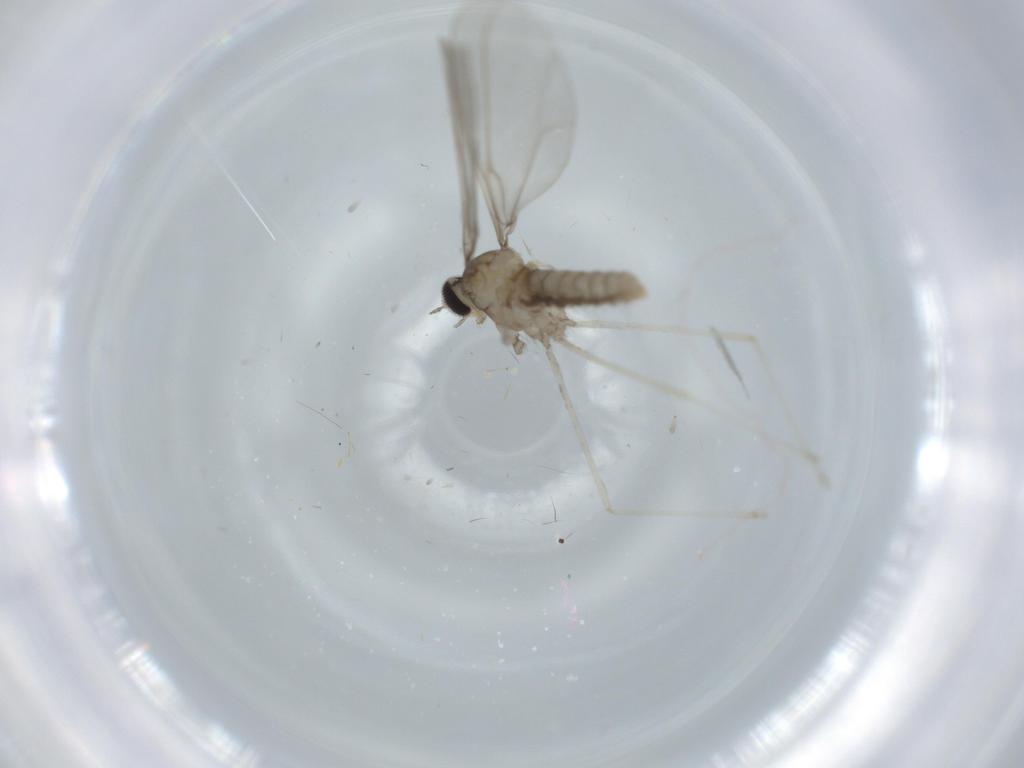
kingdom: Animalia
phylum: Arthropoda
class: Insecta
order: Diptera
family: Cecidomyiidae
